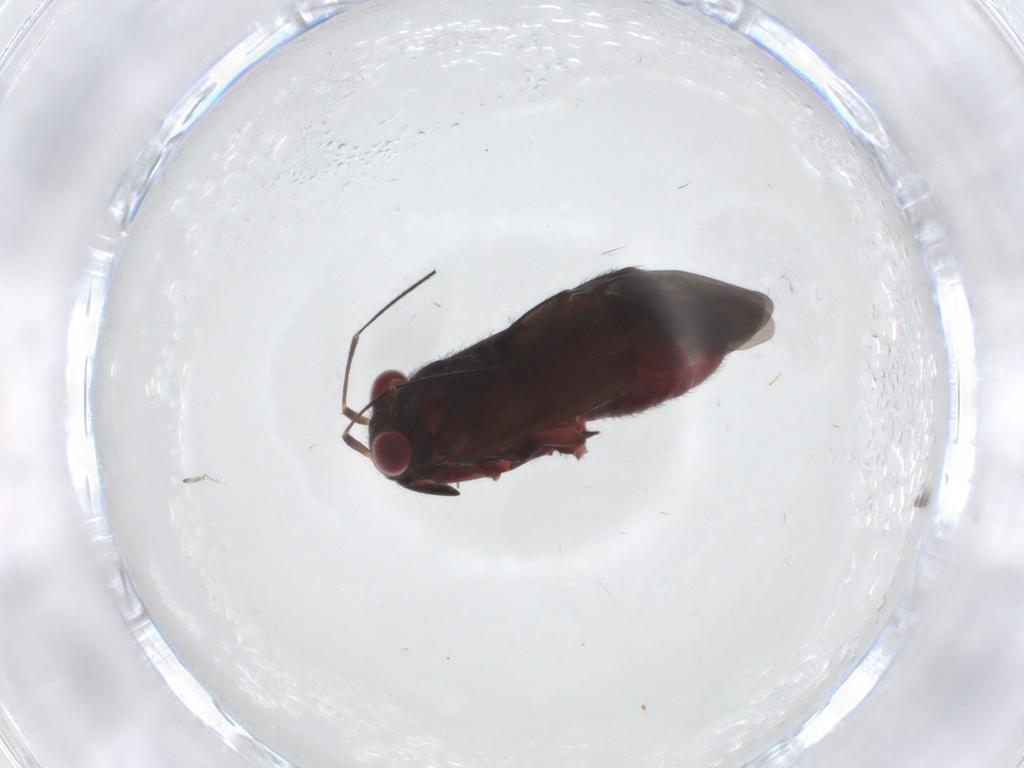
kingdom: Animalia
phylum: Arthropoda
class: Insecta
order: Hemiptera
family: Miridae
